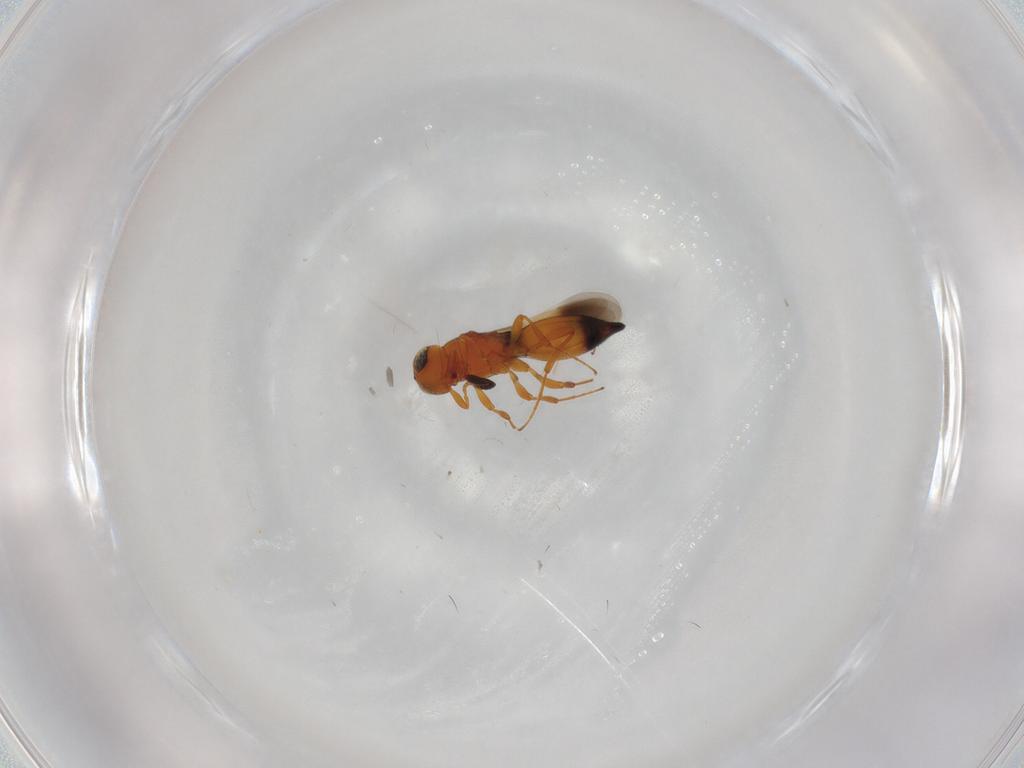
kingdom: Animalia
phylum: Arthropoda
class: Insecta
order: Hymenoptera
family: Platygastridae
